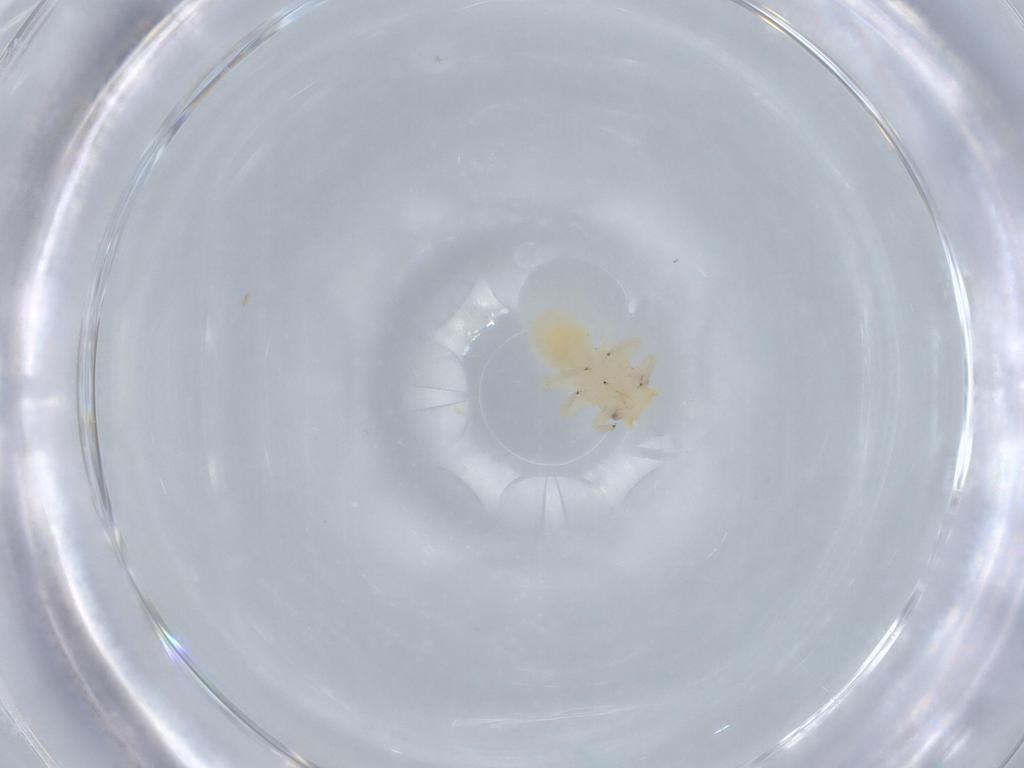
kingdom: Animalia
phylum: Arthropoda
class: Insecta
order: Hemiptera
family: Psyllidae
